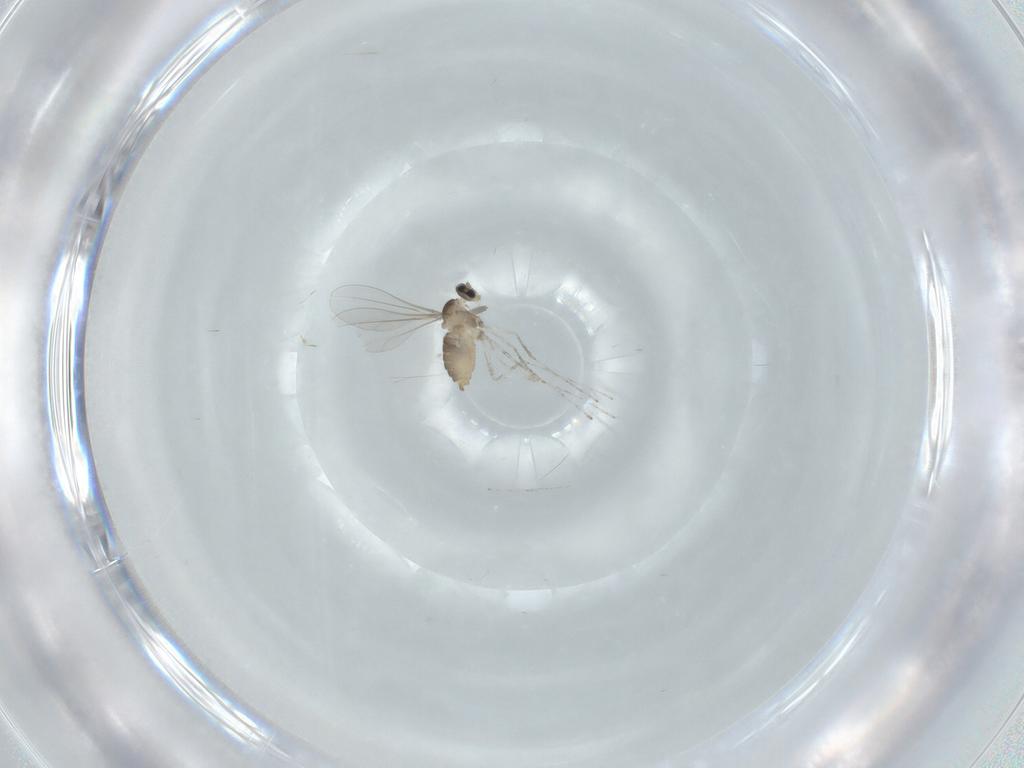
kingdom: Animalia
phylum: Arthropoda
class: Insecta
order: Diptera
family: Cecidomyiidae
